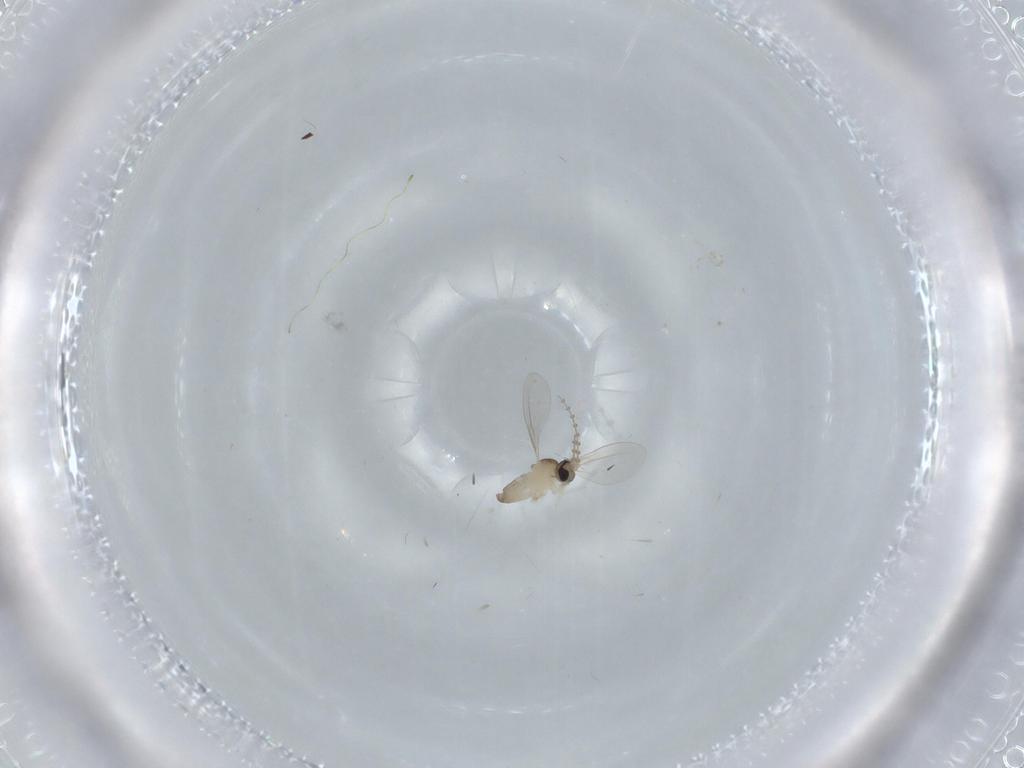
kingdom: Animalia
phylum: Arthropoda
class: Insecta
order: Diptera
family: Cecidomyiidae
